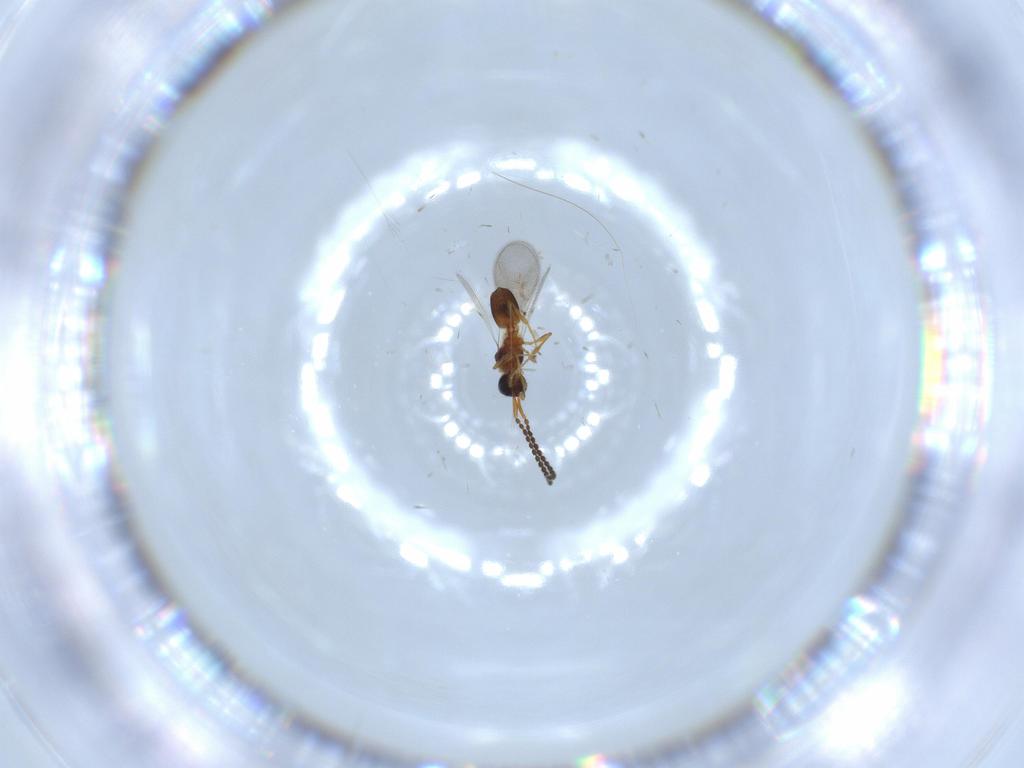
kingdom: Animalia
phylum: Arthropoda
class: Insecta
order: Hymenoptera
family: Diapriidae
